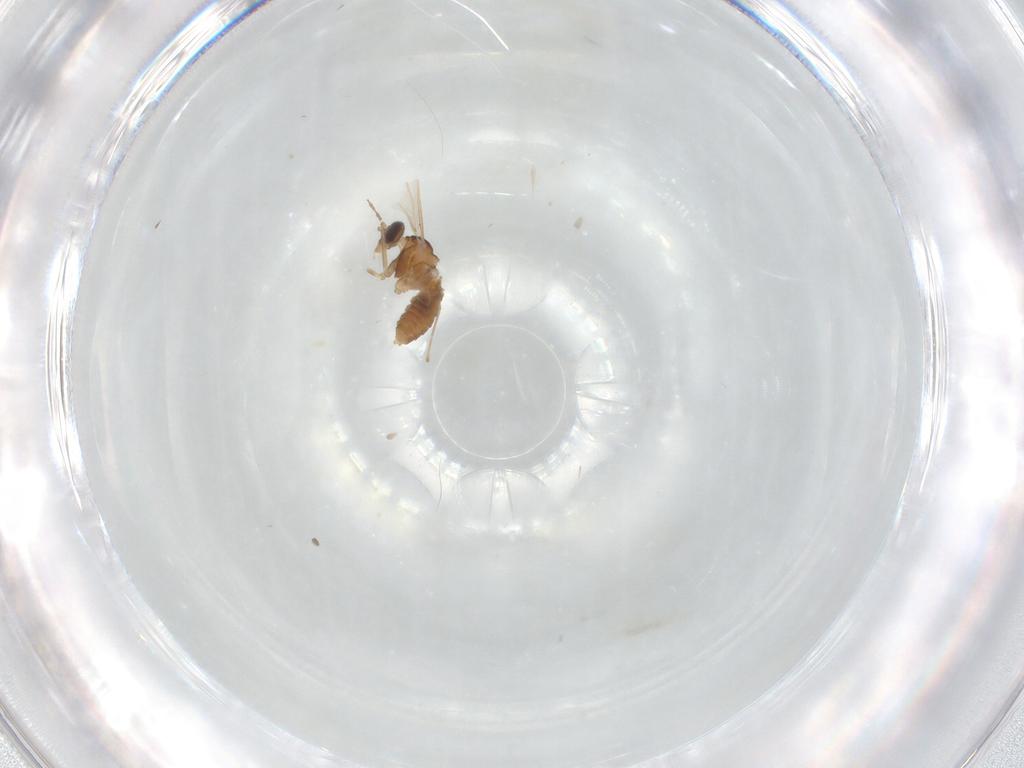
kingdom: Animalia
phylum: Arthropoda
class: Insecta
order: Diptera
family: Cecidomyiidae
